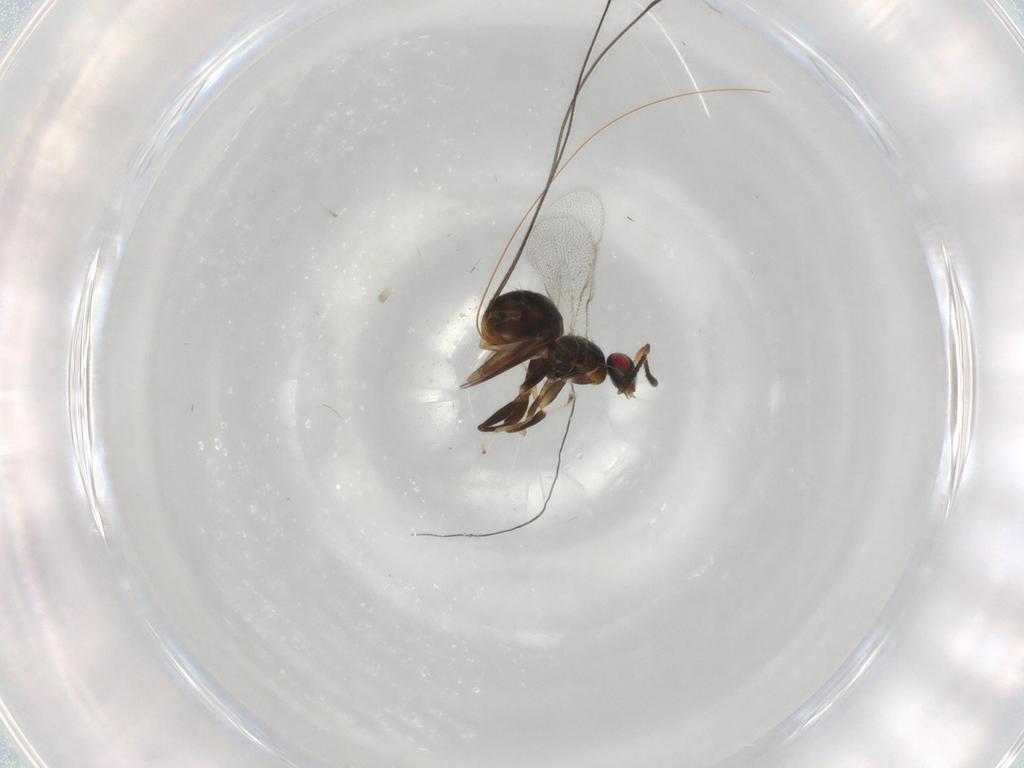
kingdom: Animalia
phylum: Arthropoda
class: Insecta
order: Hymenoptera
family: Torymidae
